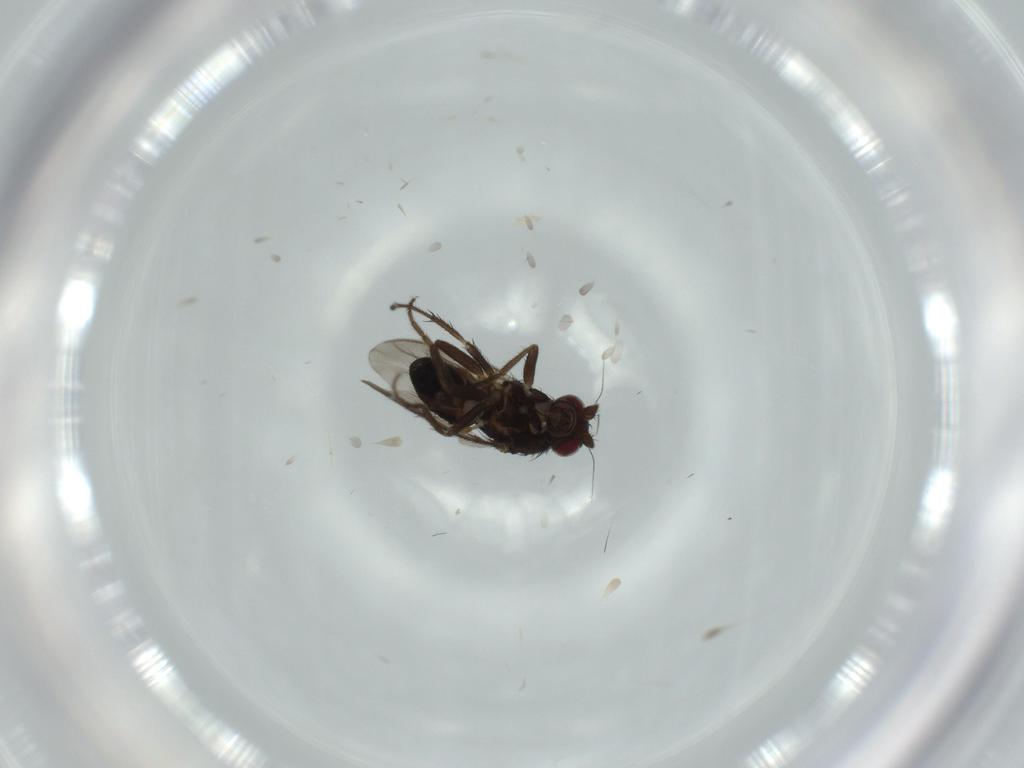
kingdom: Animalia
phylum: Arthropoda
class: Insecta
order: Diptera
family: Sphaeroceridae
